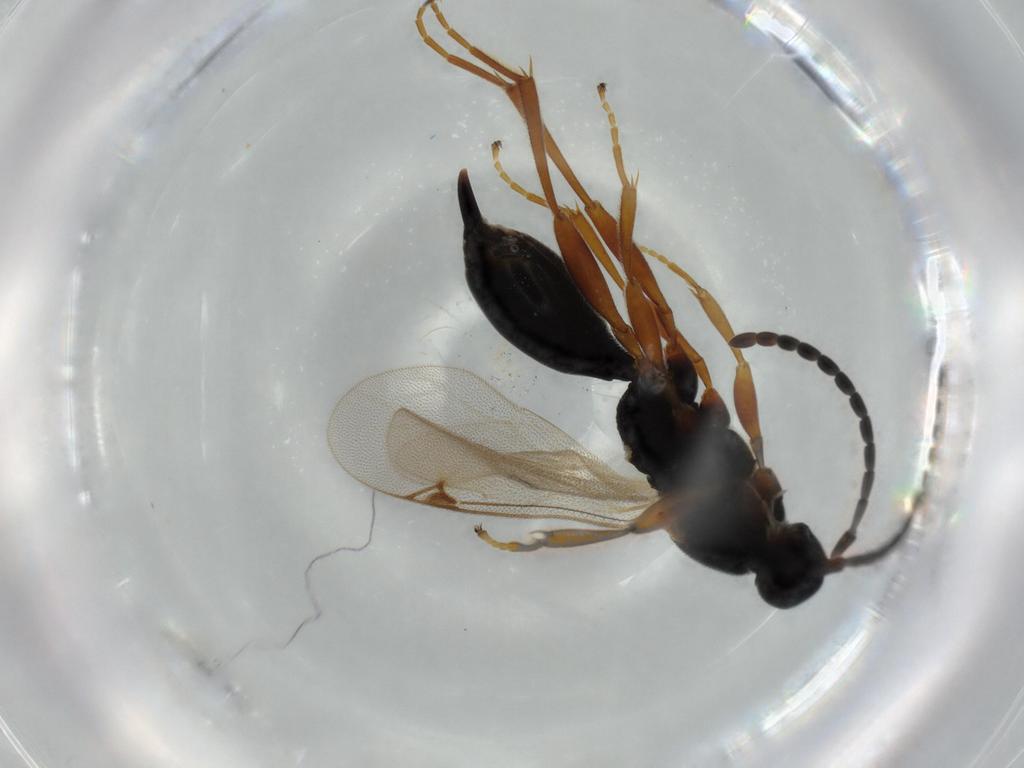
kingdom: Animalia
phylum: Arthropoda
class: Insecta
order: Hymenoptera
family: Proctotrupidae
